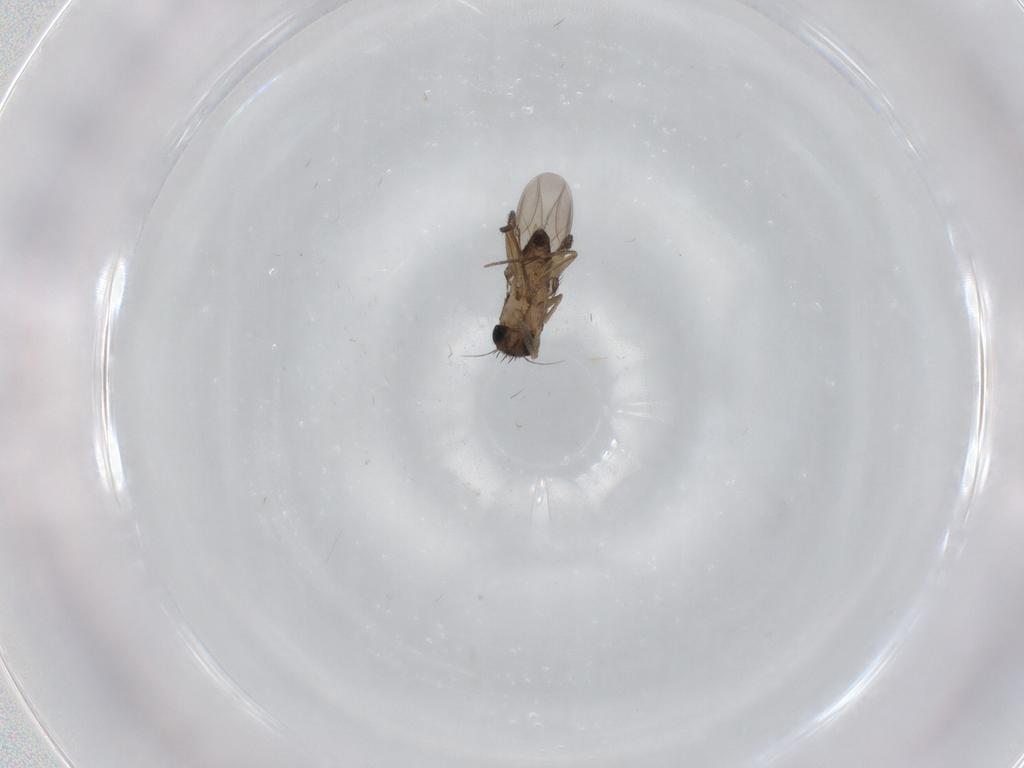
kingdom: Animalia
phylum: Arthropoda
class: Insecta
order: Diptera
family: Phoridae
